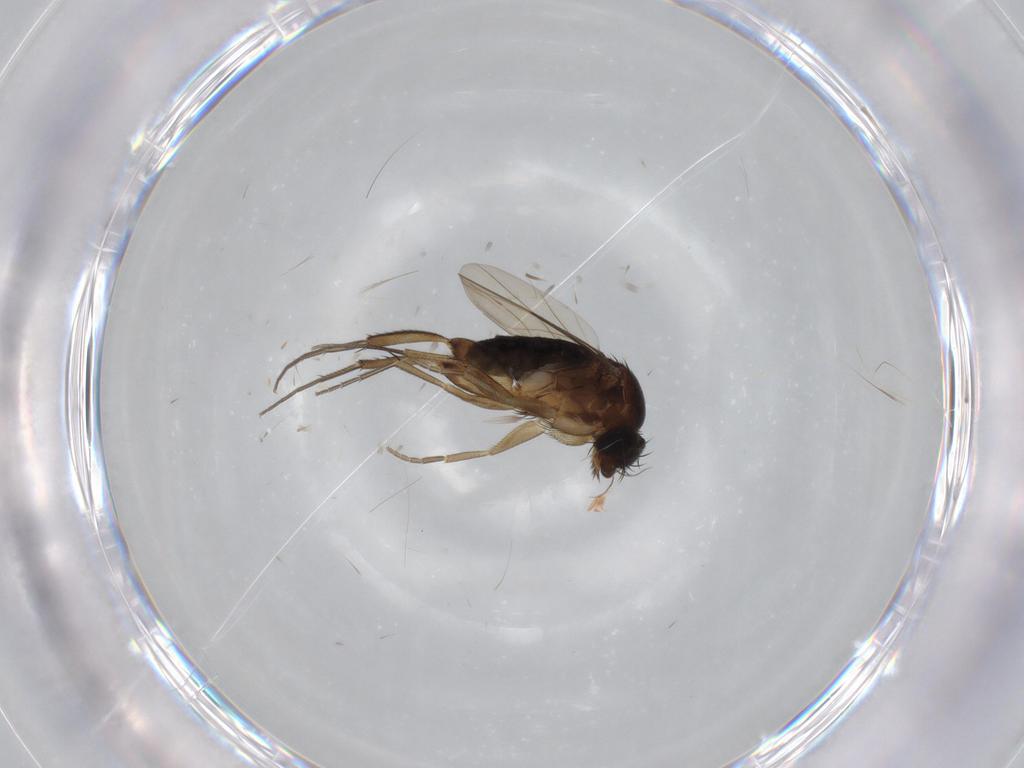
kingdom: Animalia
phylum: Arthropoda
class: Insecta
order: Diptera
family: Phoridae
